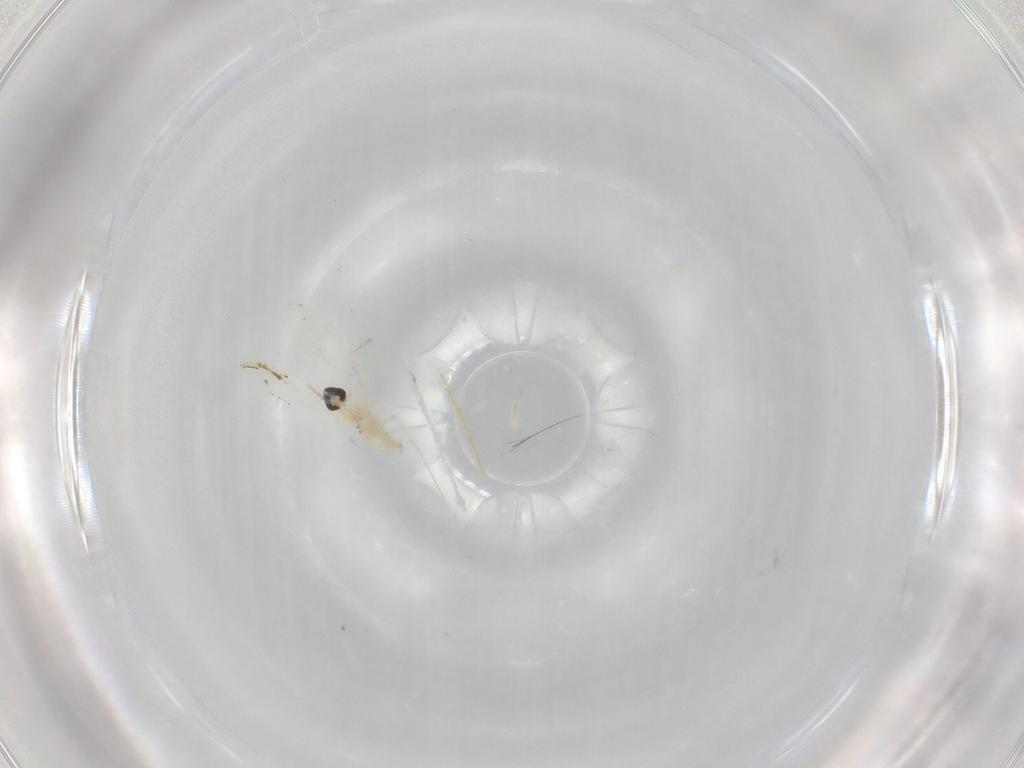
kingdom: Animalia
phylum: Arthropoda
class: Insecta
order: Diptera
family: Cecidomyiidae
